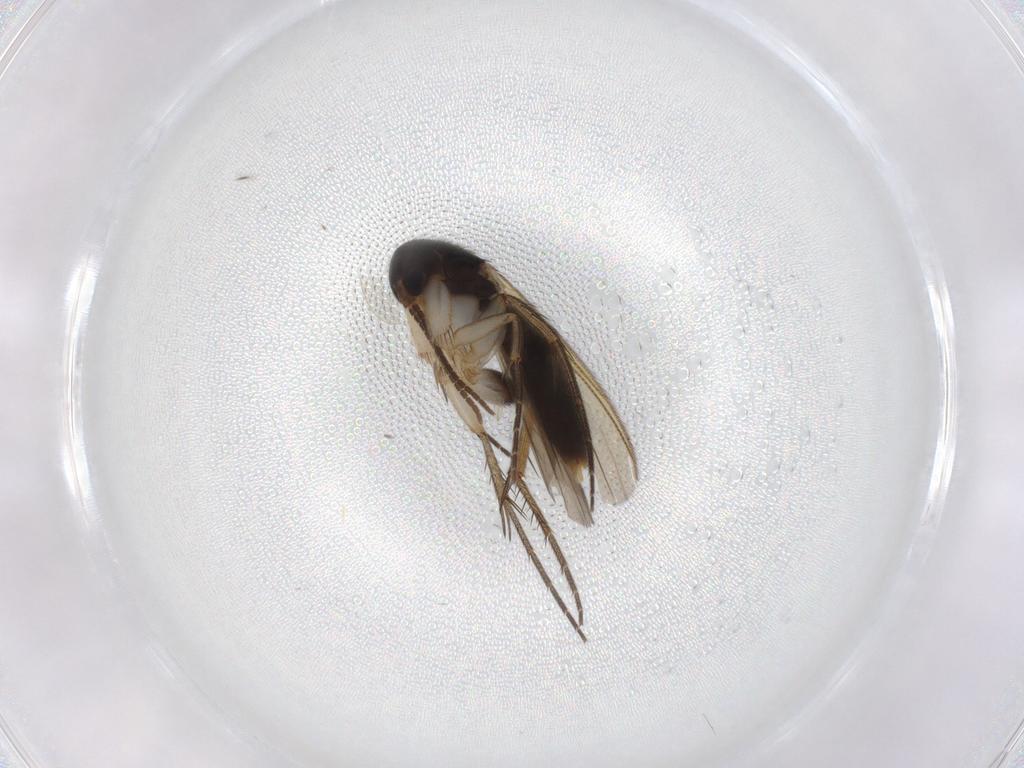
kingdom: Animalia
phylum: Arthropoda
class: Insecta
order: Diptera
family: Mycetophilidae
